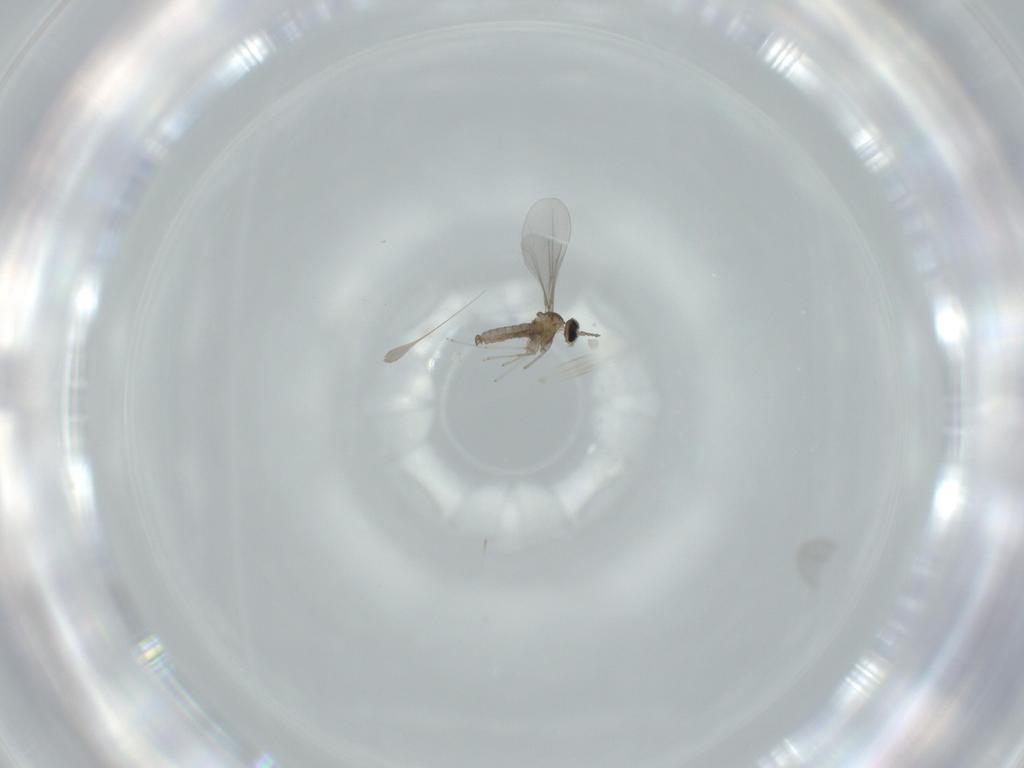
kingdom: Animalia
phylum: Arthropoda
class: Insecta
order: Diptera
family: Cecidomyiidae
